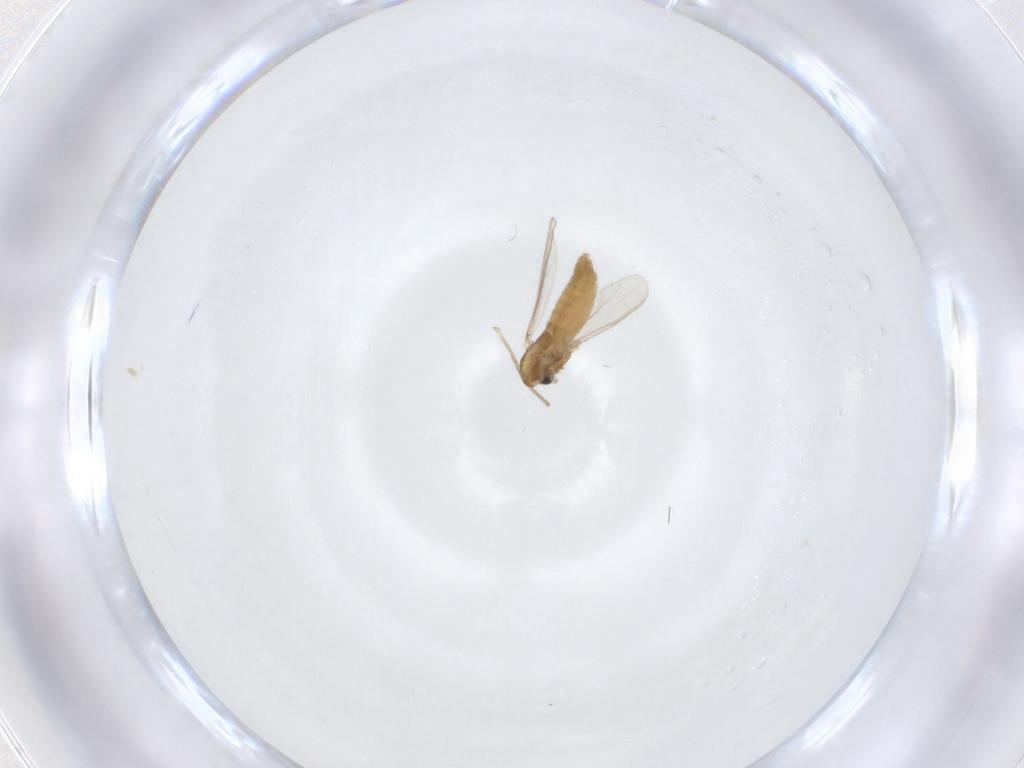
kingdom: Animalia
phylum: Arthropoda
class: Insecta
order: Diptera
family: Chironomidae
